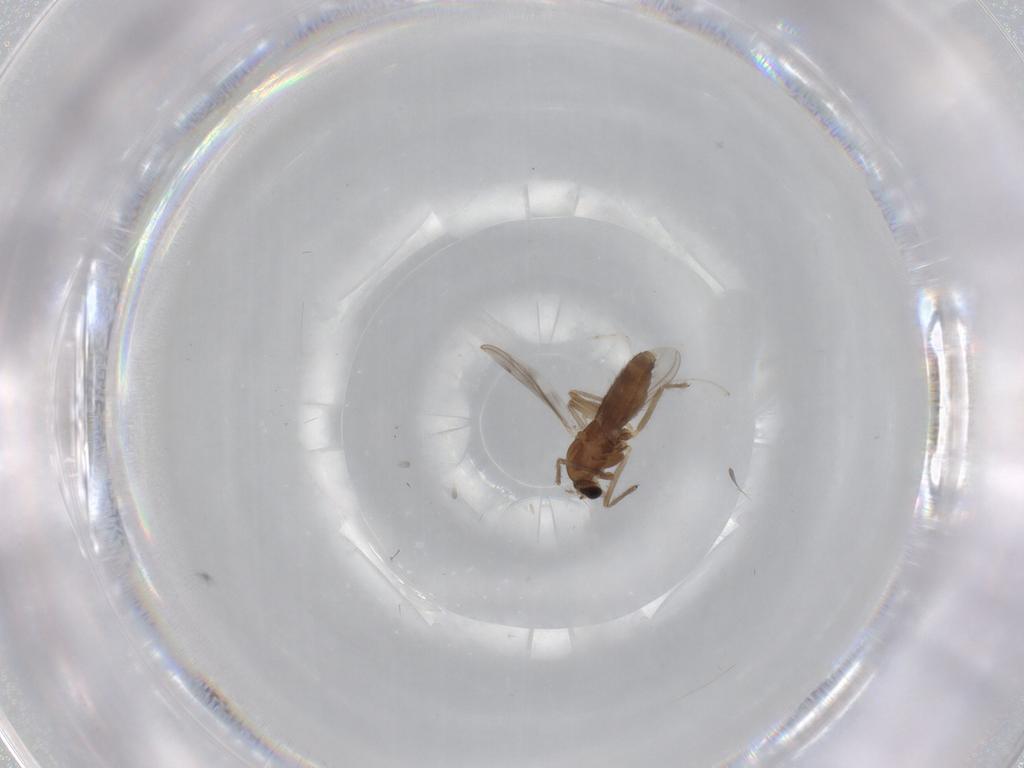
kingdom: Animalia
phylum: Arthropoda
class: Insecta
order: Diptera
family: Chironomidae
